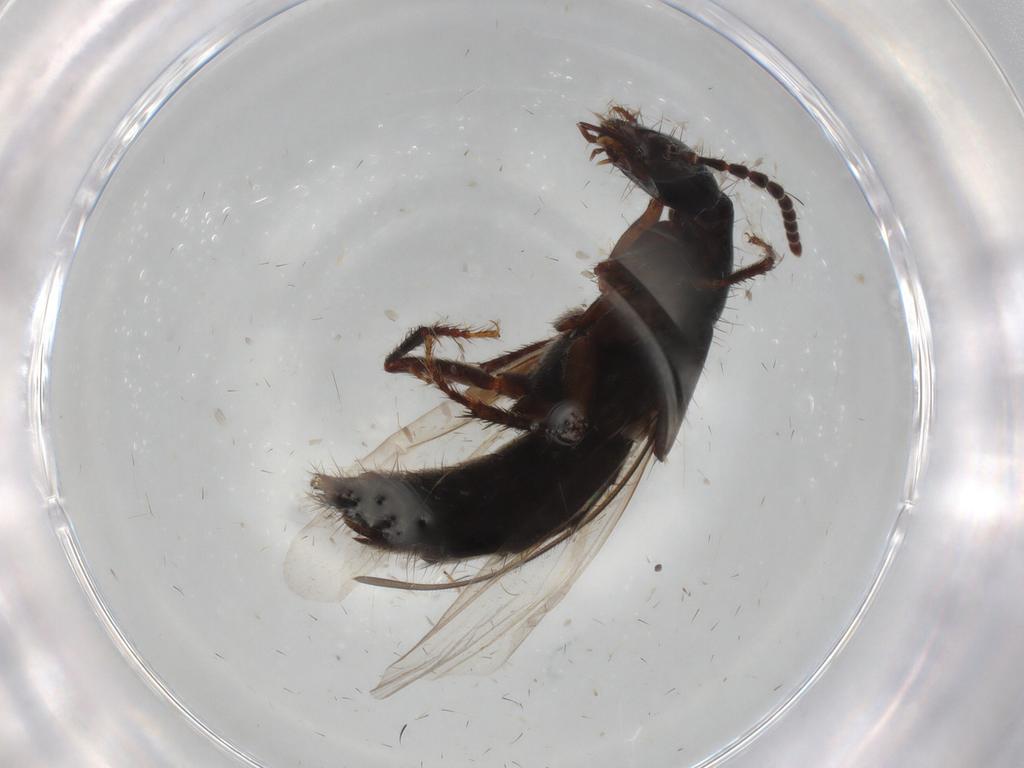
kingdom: Animalia
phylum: Arthropoda
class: Insecta
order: Coleoptera
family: Staphylinidae
